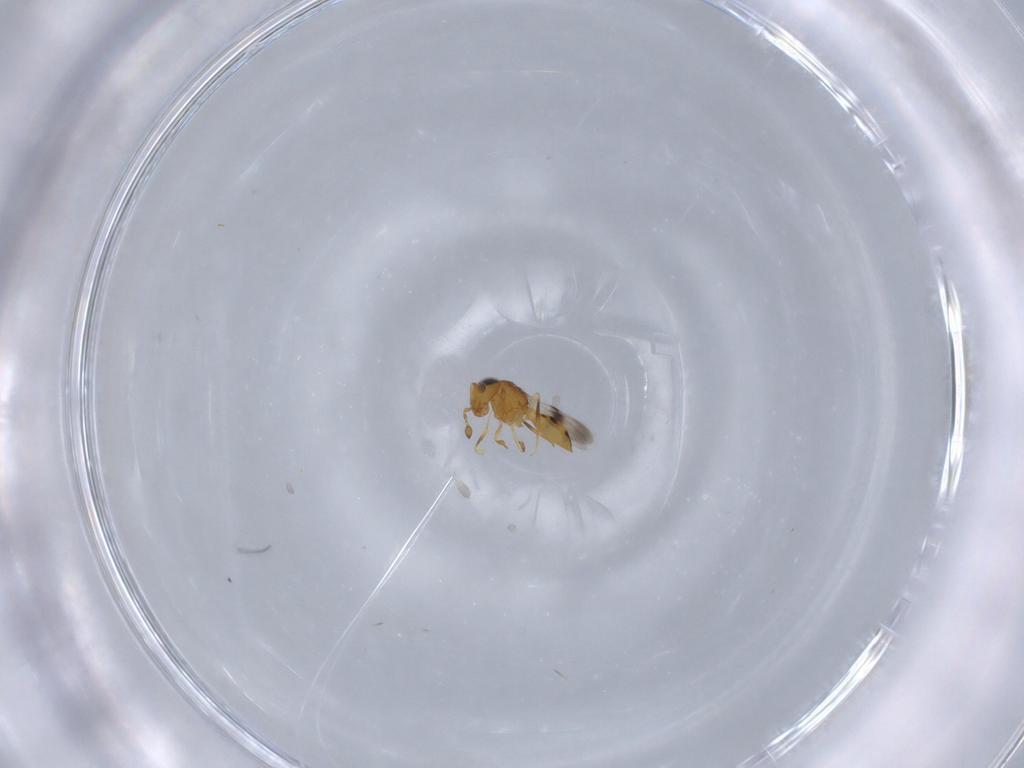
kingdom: Animalia
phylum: Arthropoda
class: Insecta
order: Hymenoptera
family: Scelionidae
